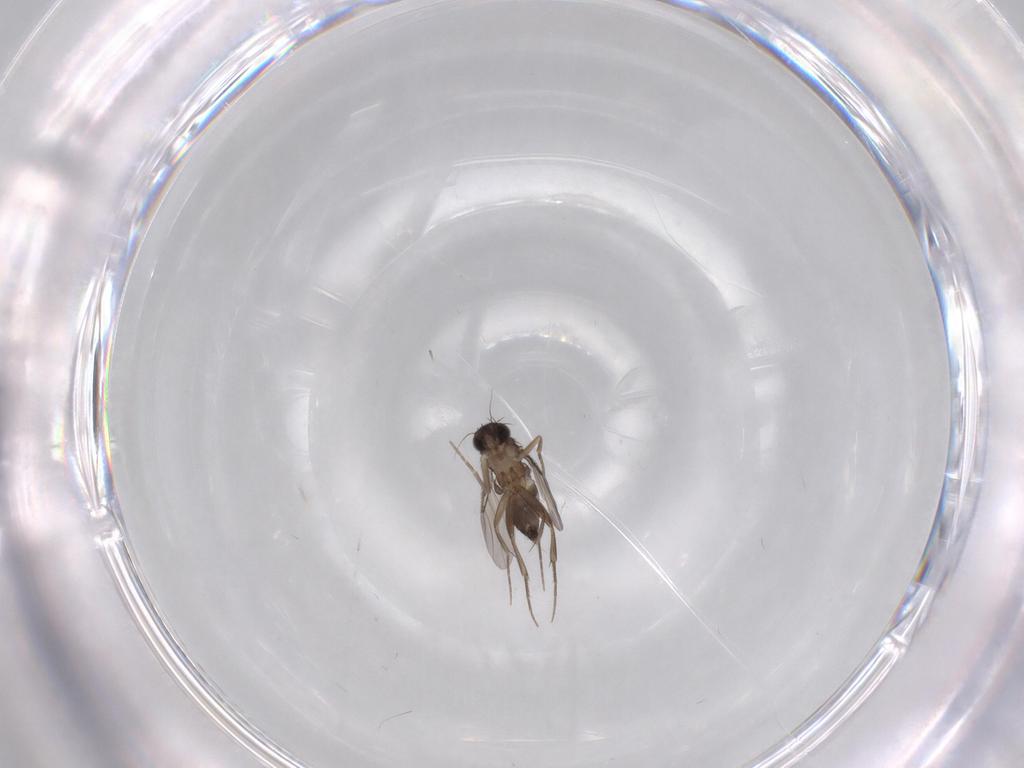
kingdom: Animalia
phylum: Arthropoda
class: Insecta
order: Diptera
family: Phoridae
